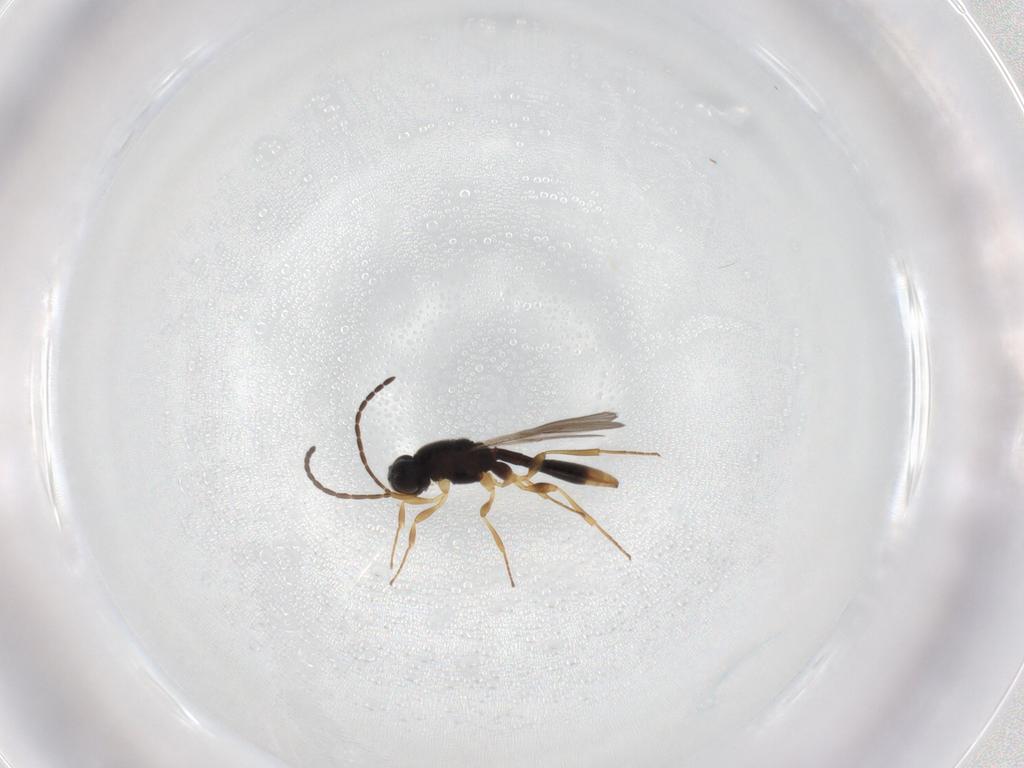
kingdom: Animalia
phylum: Arthropoda
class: Insecta
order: Hymenoptera
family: Scelionidae
